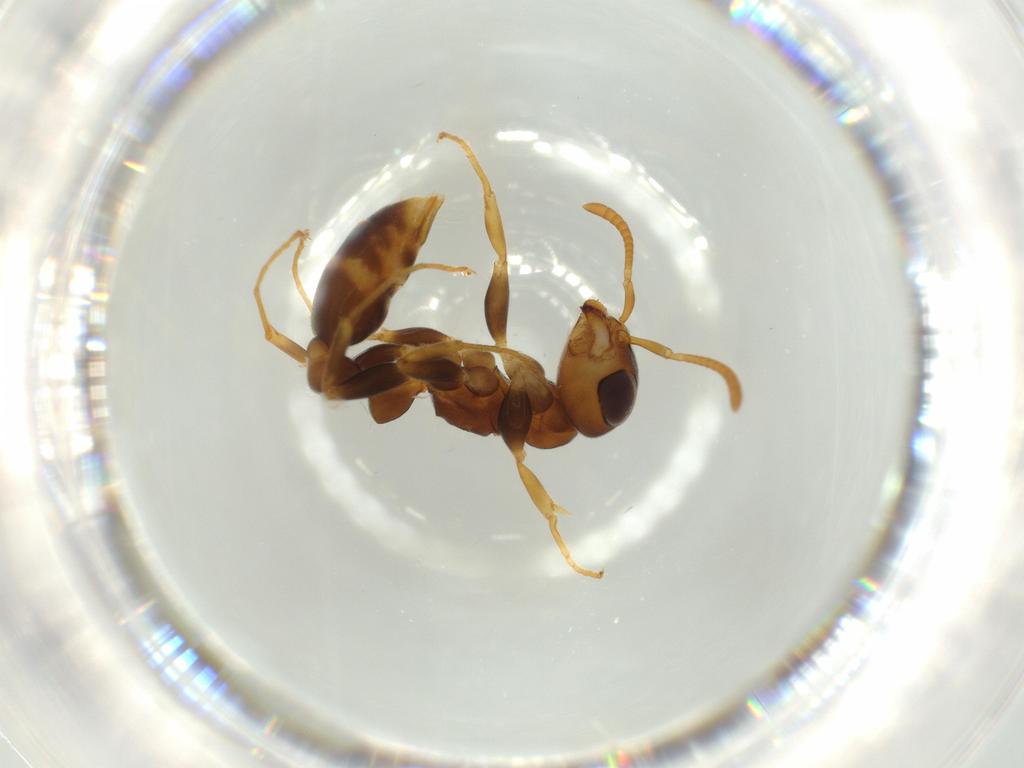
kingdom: Animalia
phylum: Arthropoda
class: Insecta
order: Hymenoptera
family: Formicidae
